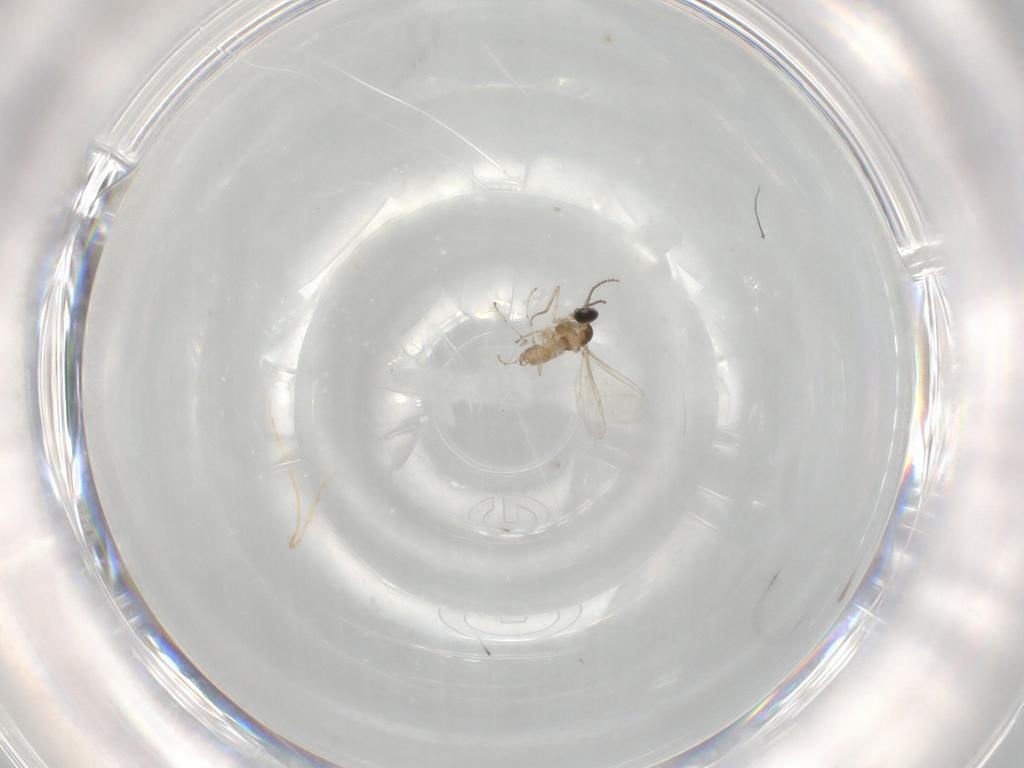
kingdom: Animalia
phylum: Arthropoda
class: Insecta
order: Diptera
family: Cecidomyiidae
